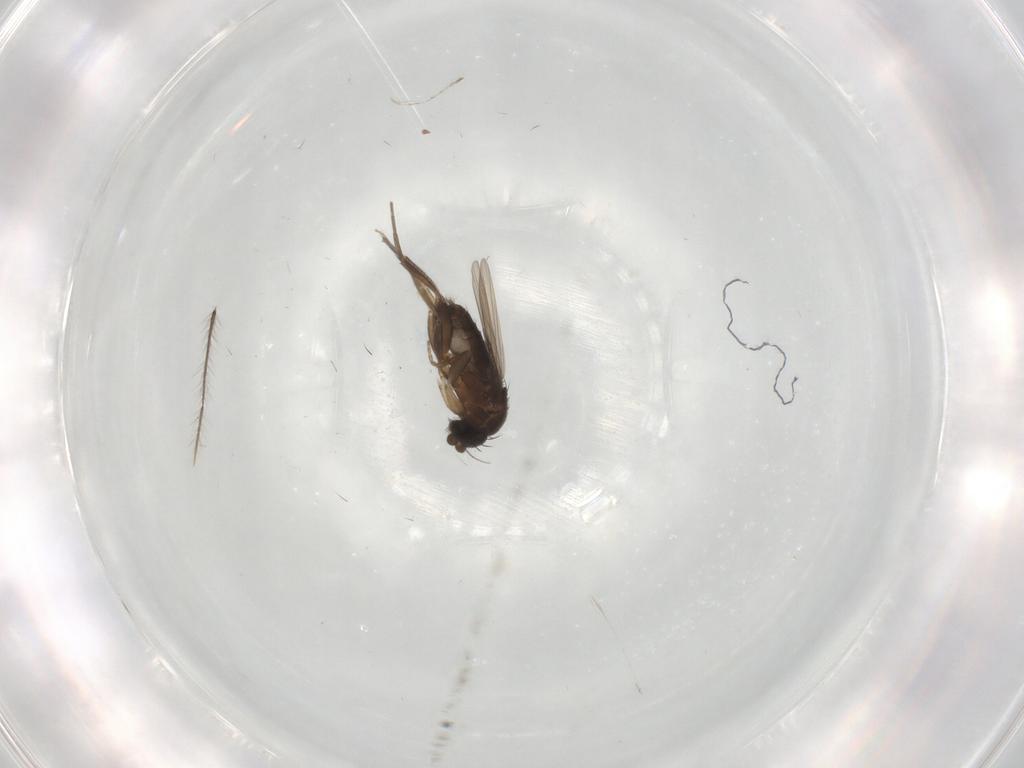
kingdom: Animalia
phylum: Arthropoda
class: Insecta
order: Diptera
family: Phoridae
